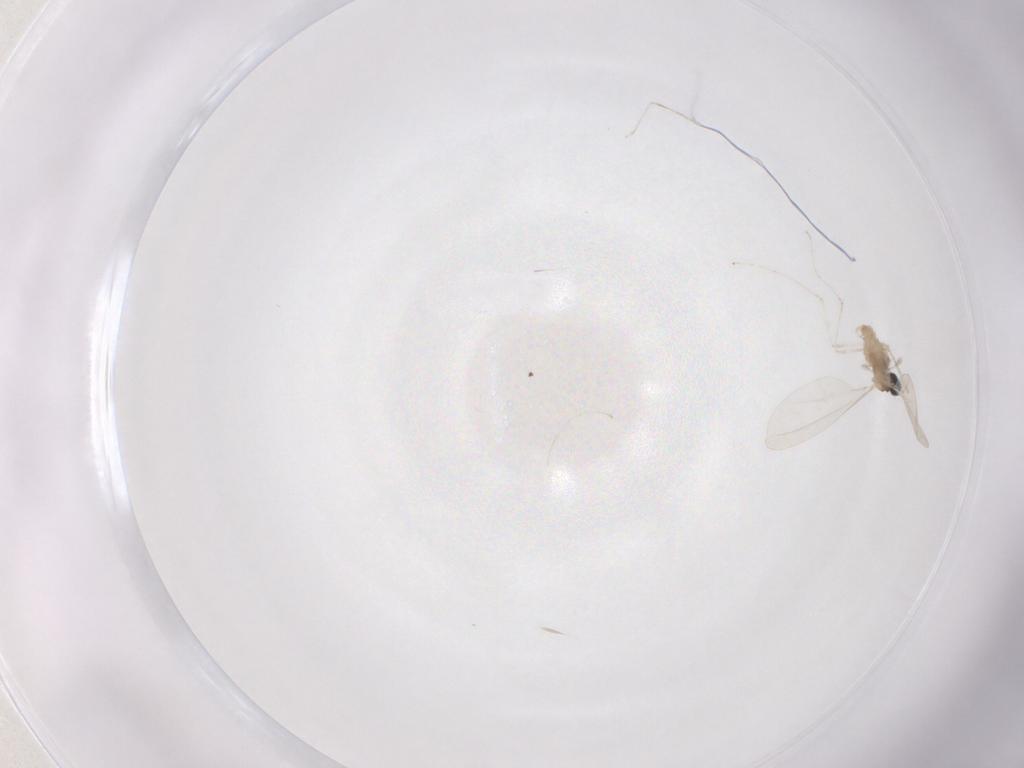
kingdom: Animalia
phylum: Arthropoda
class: Insecta
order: Diptera
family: Cecidomyiidae
